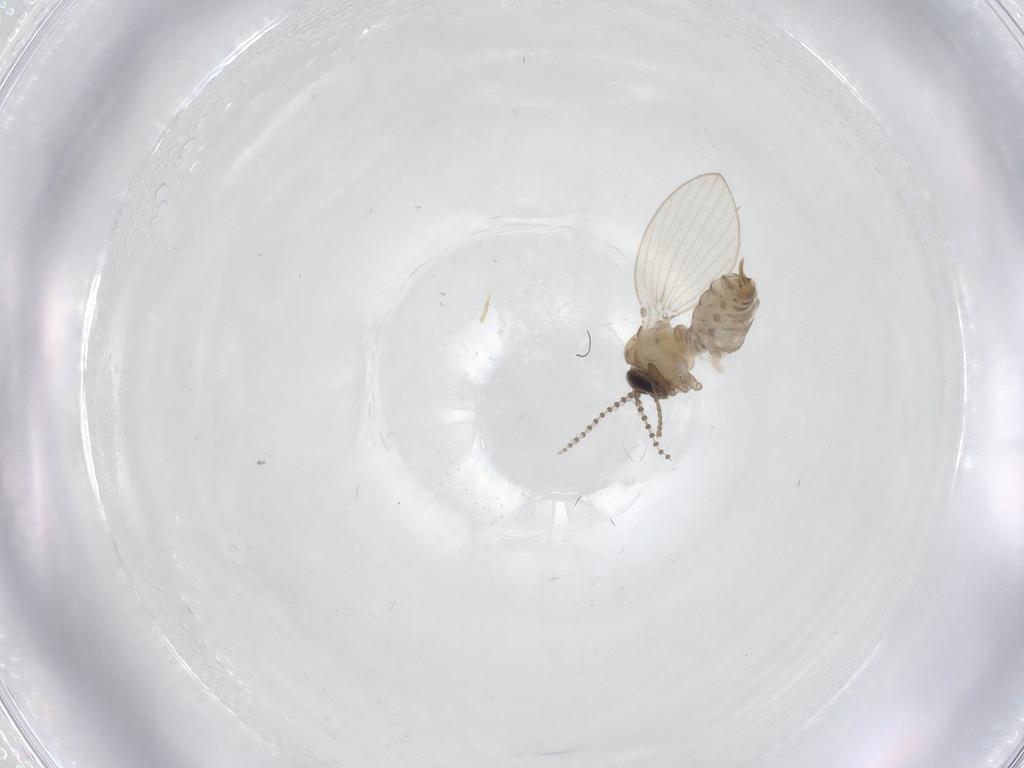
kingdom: Animalia
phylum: Arthropoda
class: Insecta
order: Diptera
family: Psychodidae
